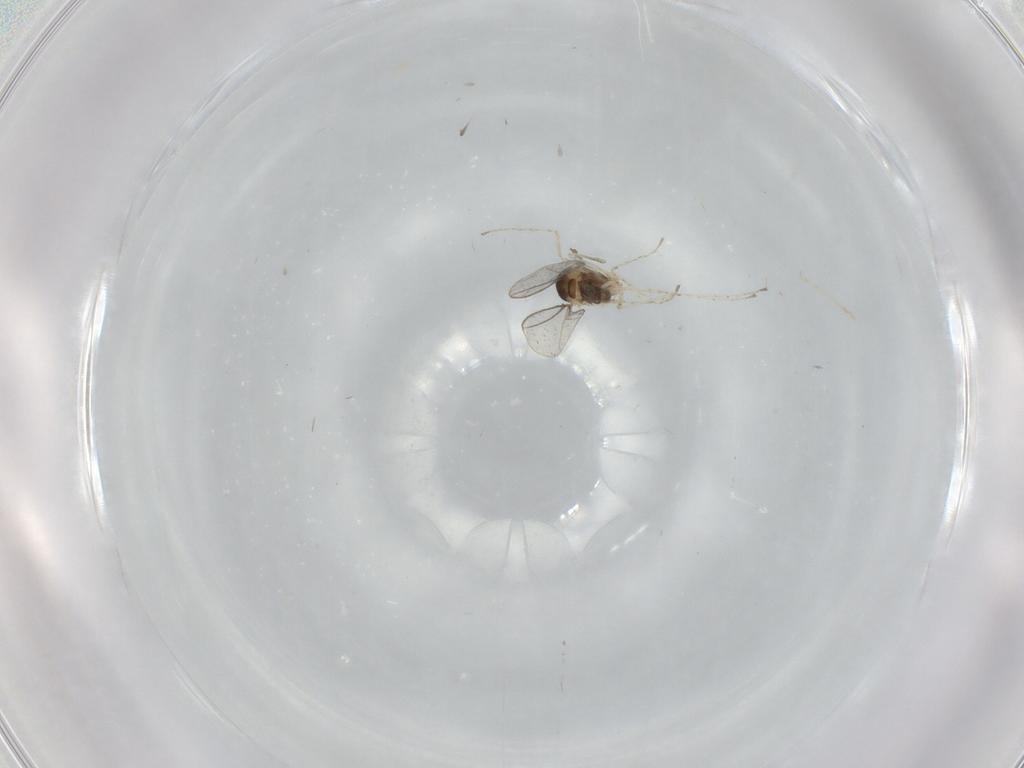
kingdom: Animalia
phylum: Arthropoda
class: Insecta
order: Diptera
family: Cecidomyiidae
